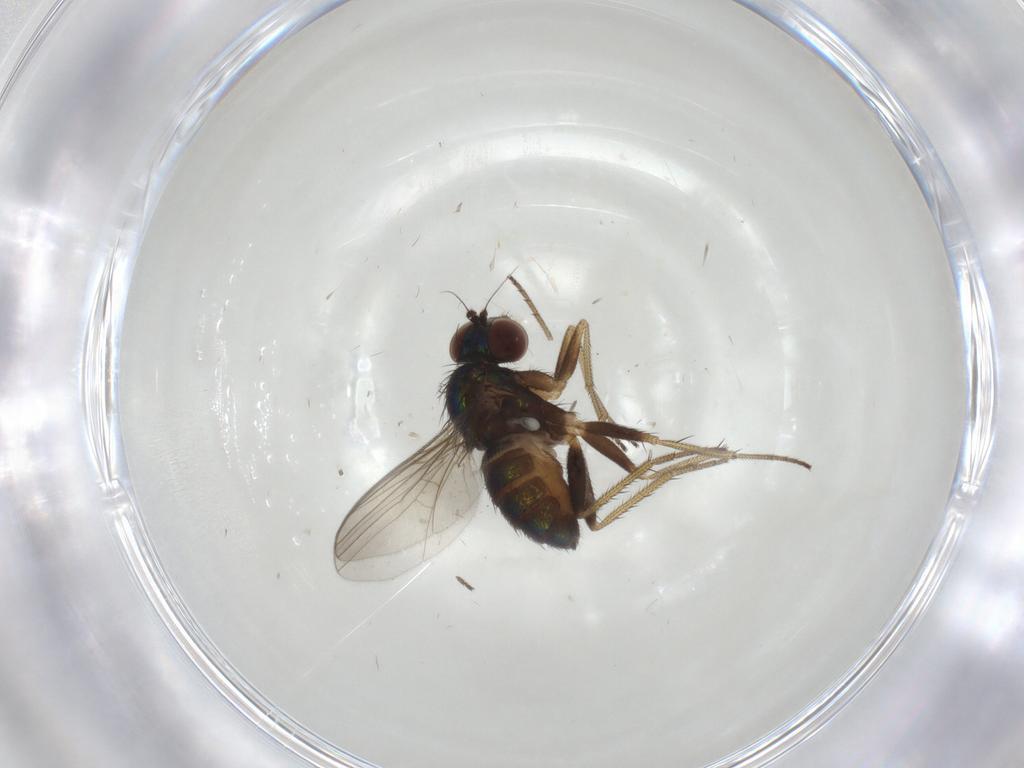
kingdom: Animalia
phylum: Arthropoda
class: Insecta
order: Diptera
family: Dolichopodidae
